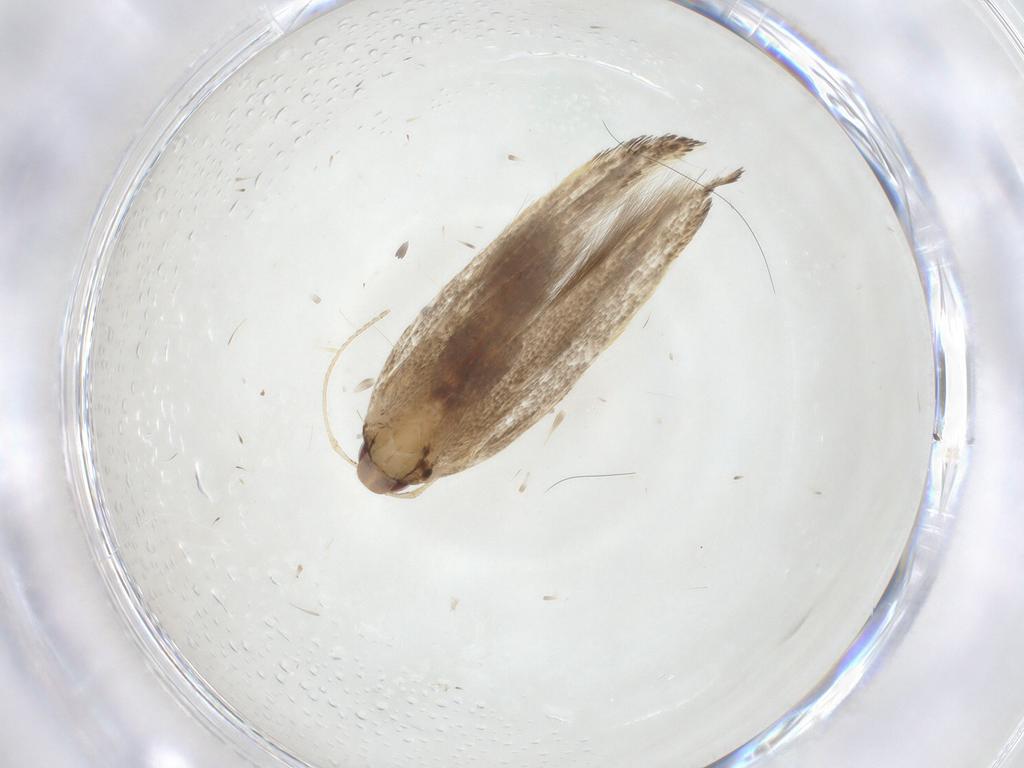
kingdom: Animalia
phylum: Arthropoda
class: Insecta
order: Lepidoptera
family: Cosmopterigidae
